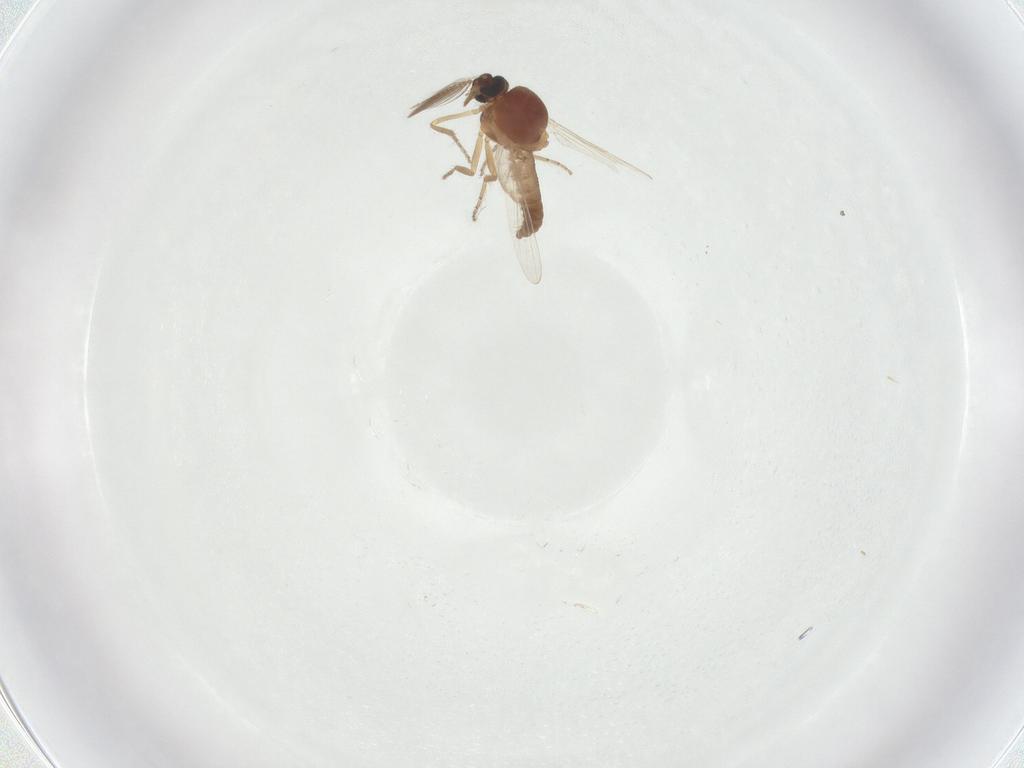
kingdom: Animalia
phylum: Arthropoda
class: Insecta
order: Diptera
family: Ceratopogonidae
